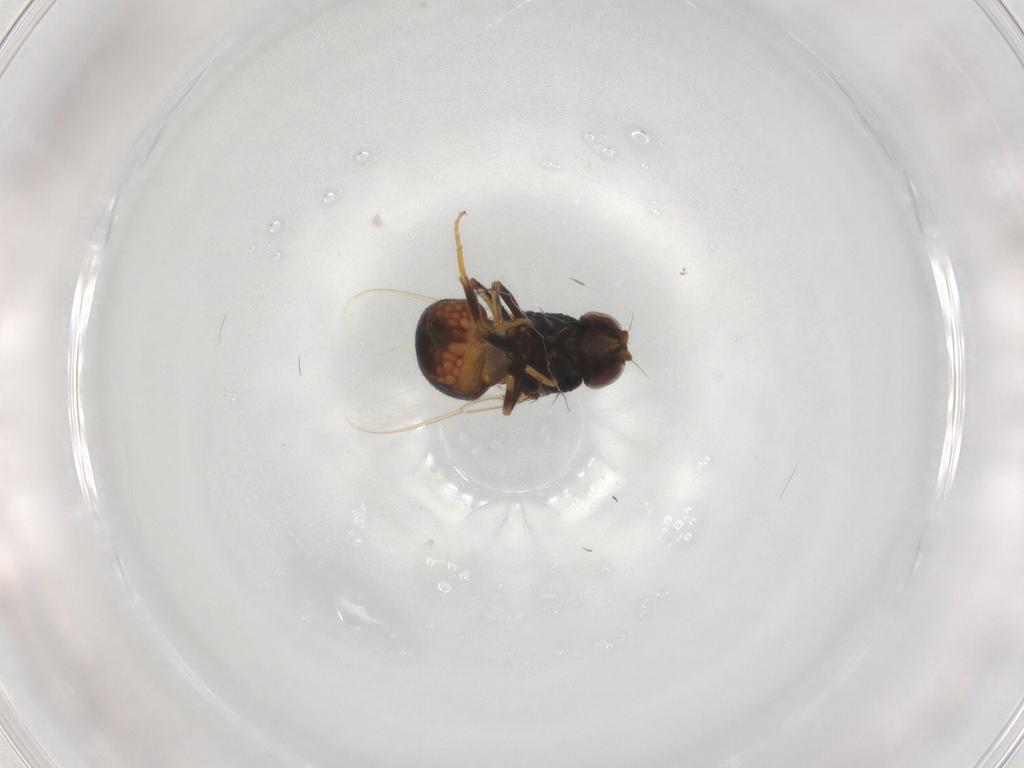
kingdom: Animalia
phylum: Arthropoda
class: Insecta
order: Diptera
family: Chloropidae
